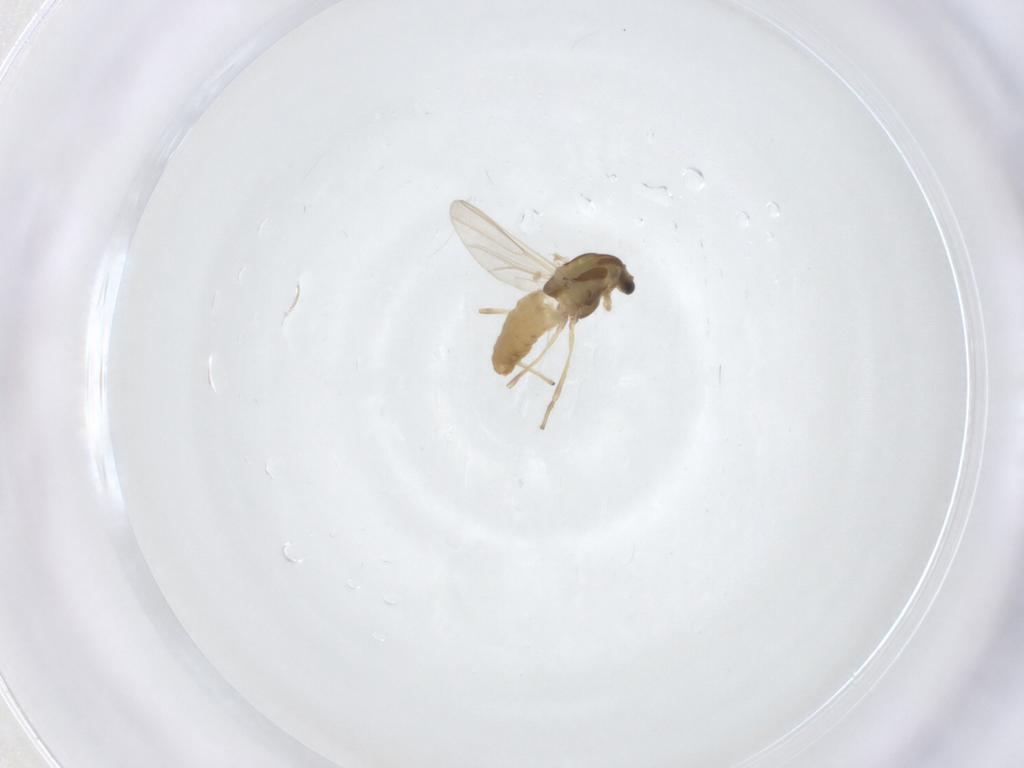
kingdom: Animalia
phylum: Arthropoda
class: Insecta
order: Diptera
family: Chironomidae
